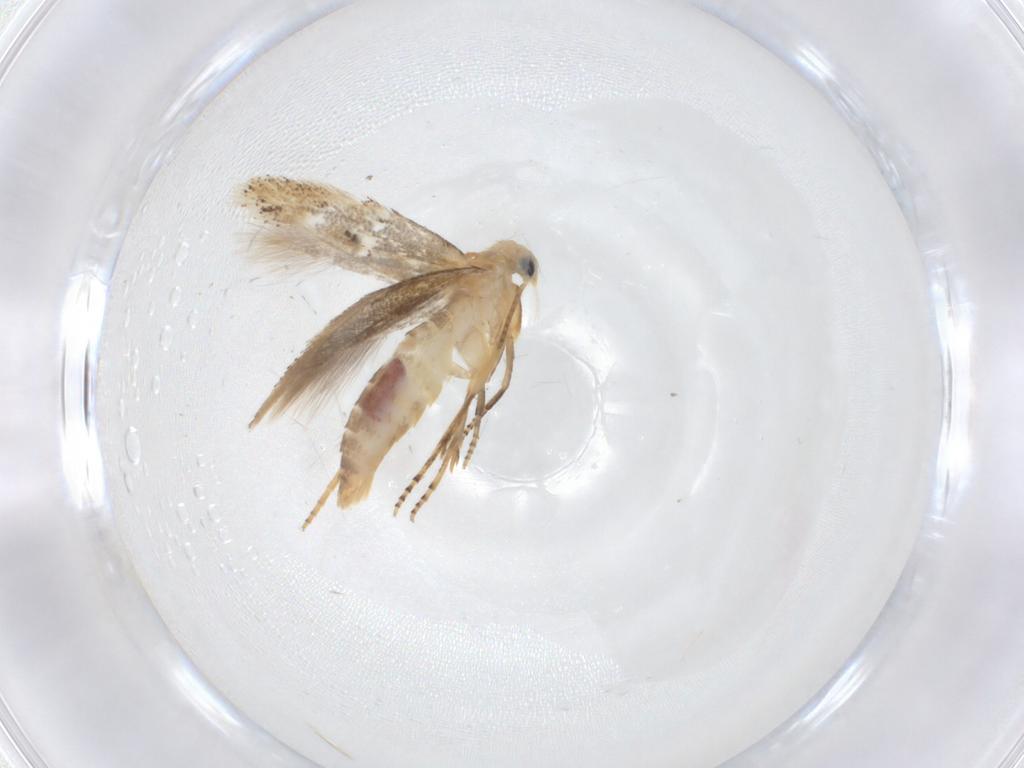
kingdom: Animalia
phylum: Arthropoda
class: Insecta
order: Lepidoptera
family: Bucculatricidae
